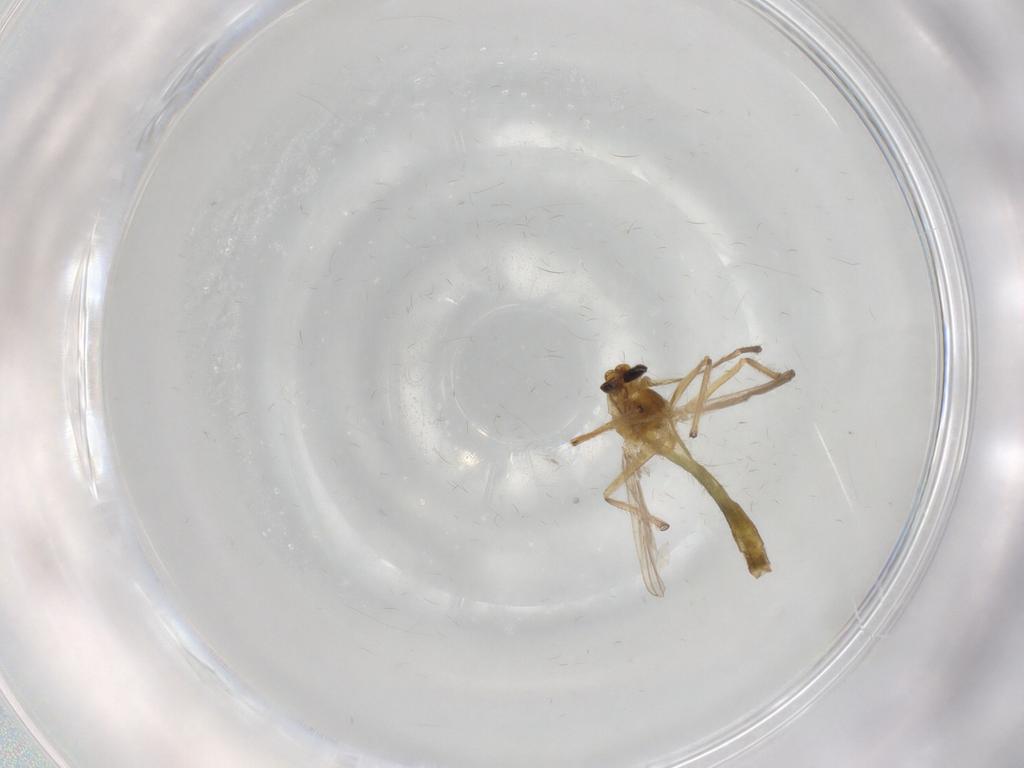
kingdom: Animalia
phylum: Arthropoda
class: Insecta
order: Diptera
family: Chironomidae
